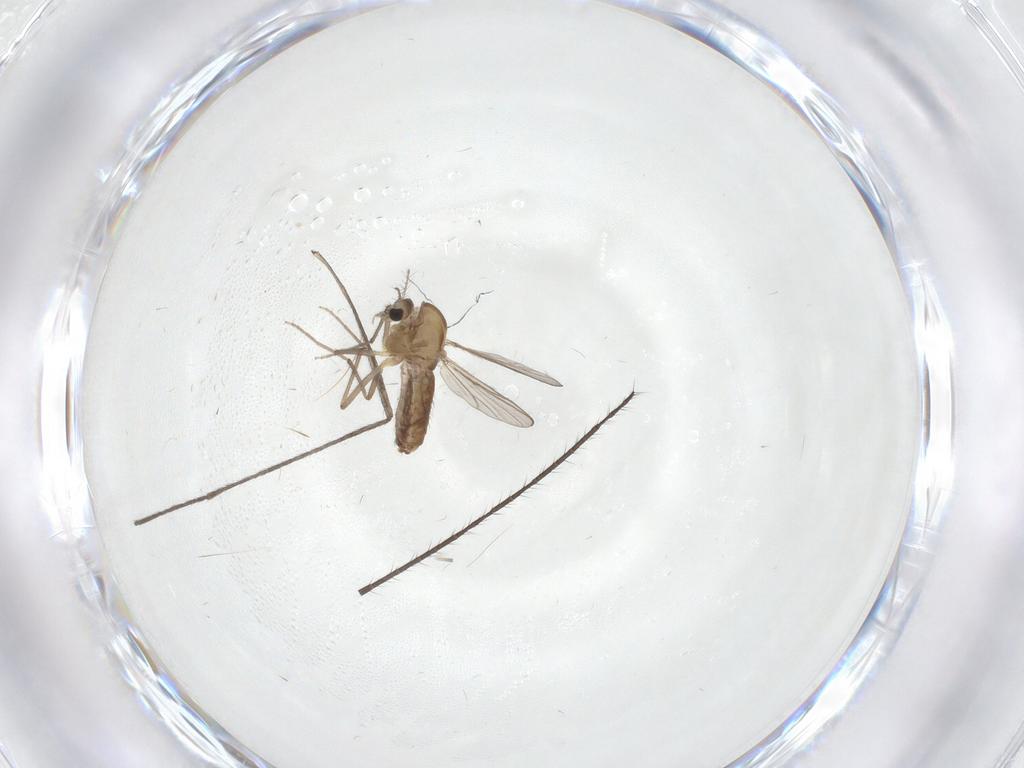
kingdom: Animalia
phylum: Arthropoda
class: Insecta
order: Diptera
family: Chironomidae
